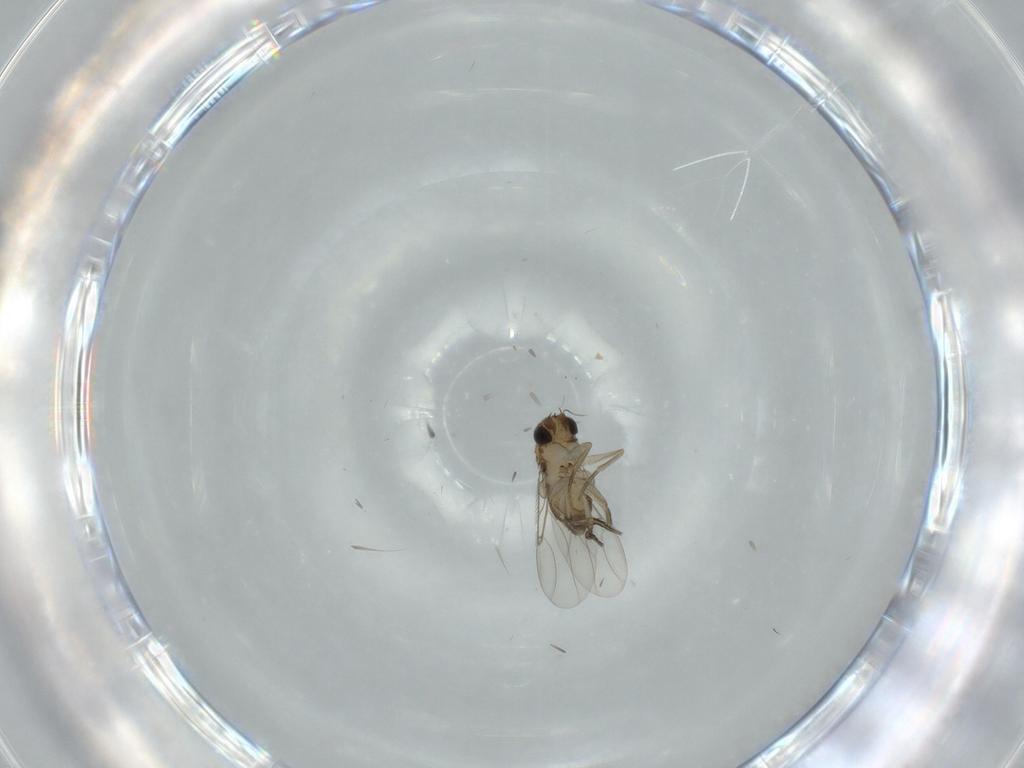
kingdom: Animalia
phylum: Arthropoda
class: Insecta
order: Diptera
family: Phoridae
